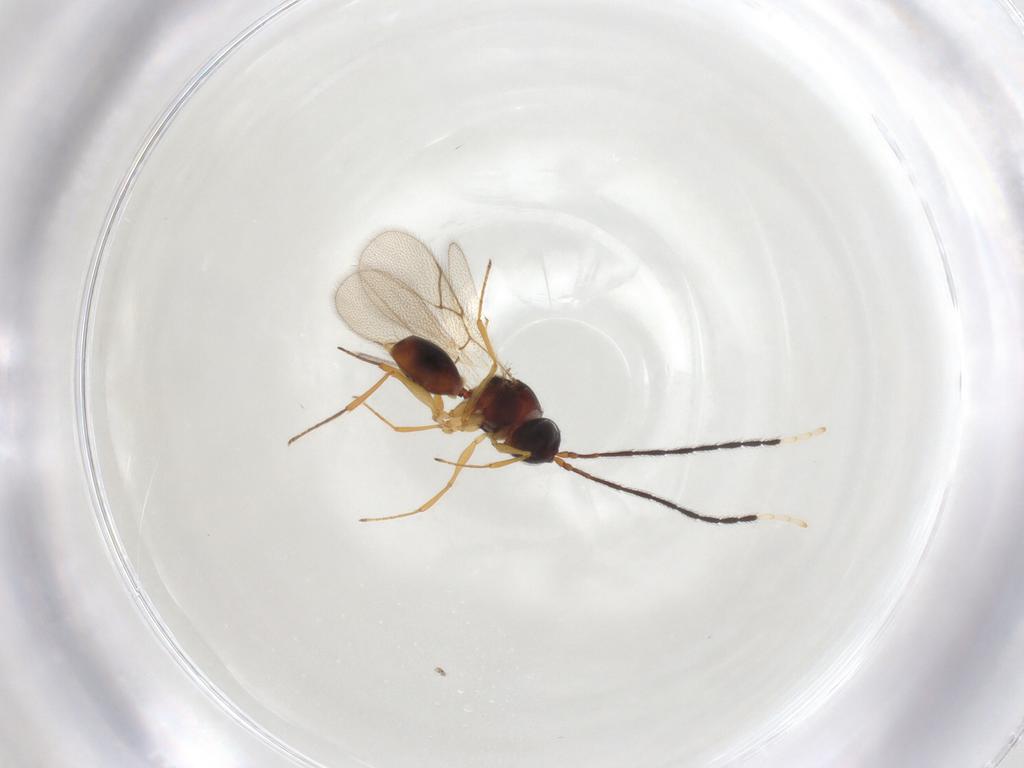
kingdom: Animalia
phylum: Arthropoda
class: Insecta
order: Hymenoptera
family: Figitidae
